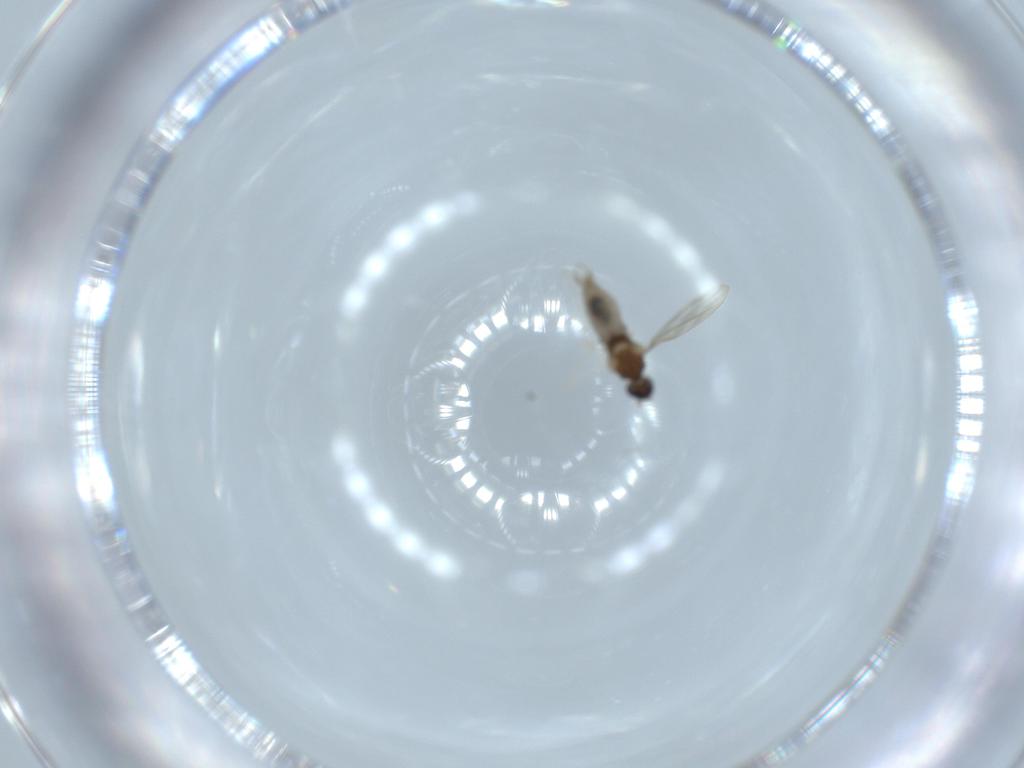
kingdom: Animalia
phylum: Arthropoda
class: Insecta
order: Diptera
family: Cecidomyiidae
